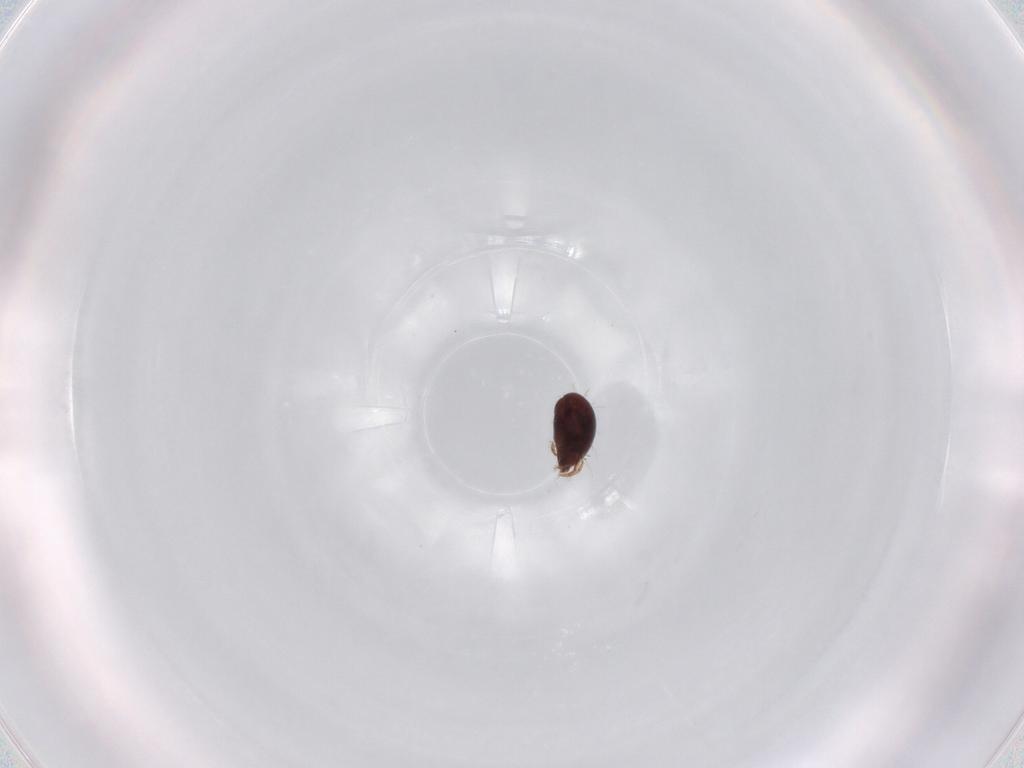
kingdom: Animalia
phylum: Arthropoda
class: Arachnida
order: Sarcoptiformes
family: Humerobatidae
